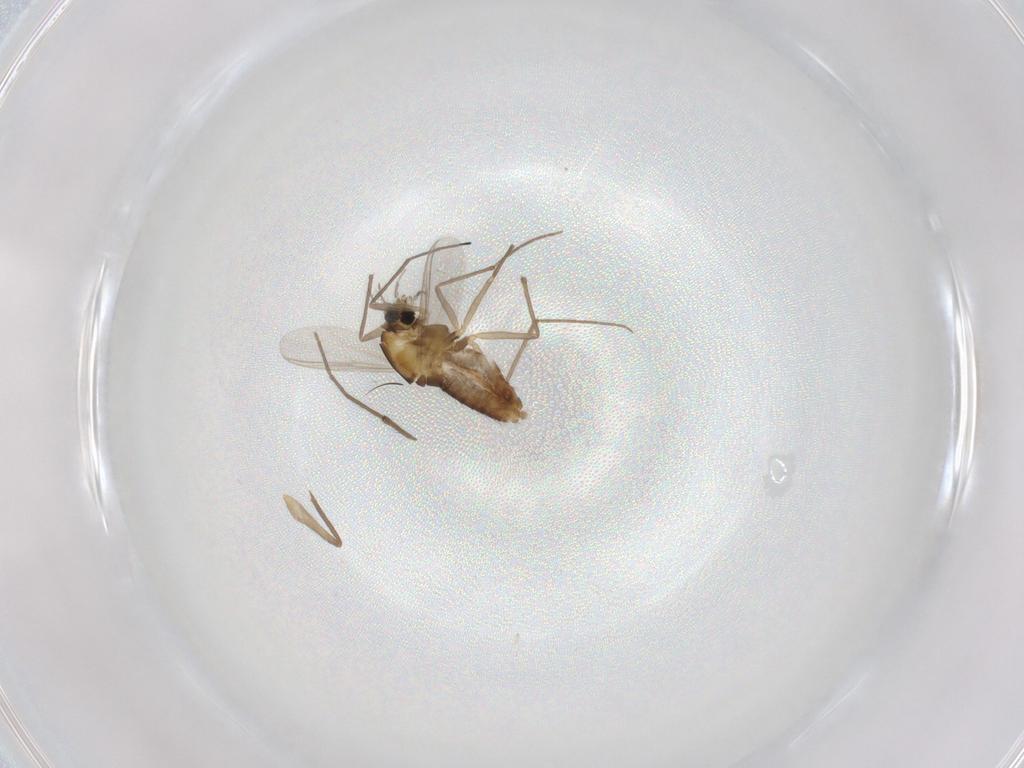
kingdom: Animalia
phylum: Arthropoda
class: Insecta
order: Diptera
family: Chironomidae
